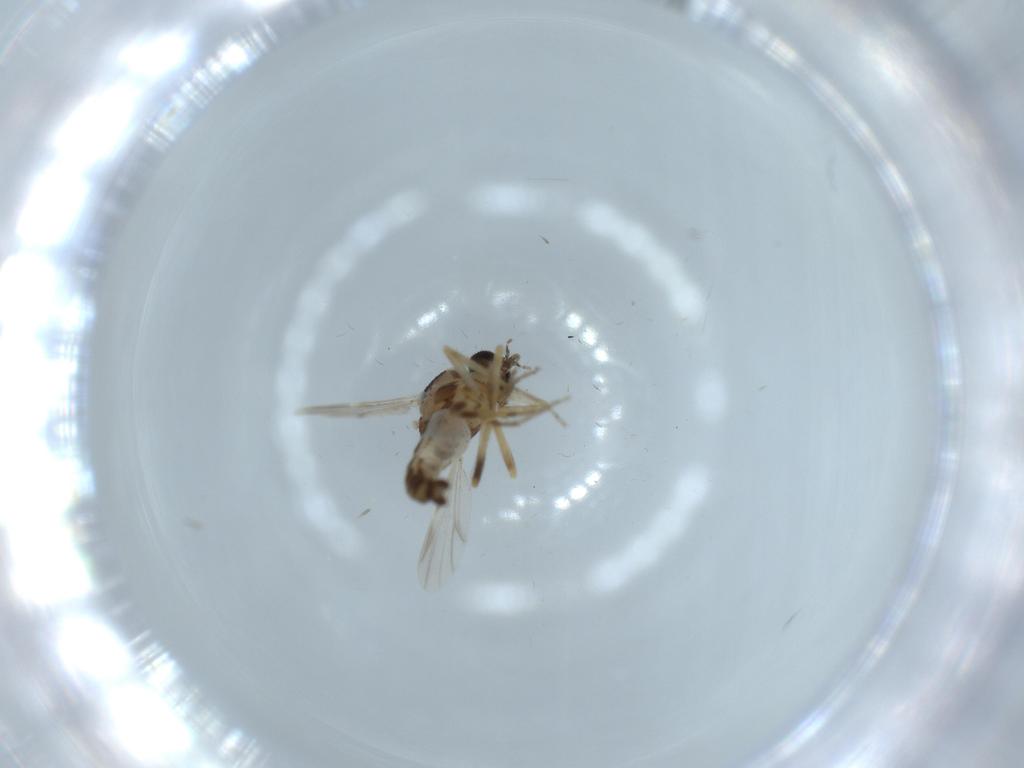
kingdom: Animalia
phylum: Arthropoda
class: Insecta
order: Diptera
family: Ceratopogonidae
